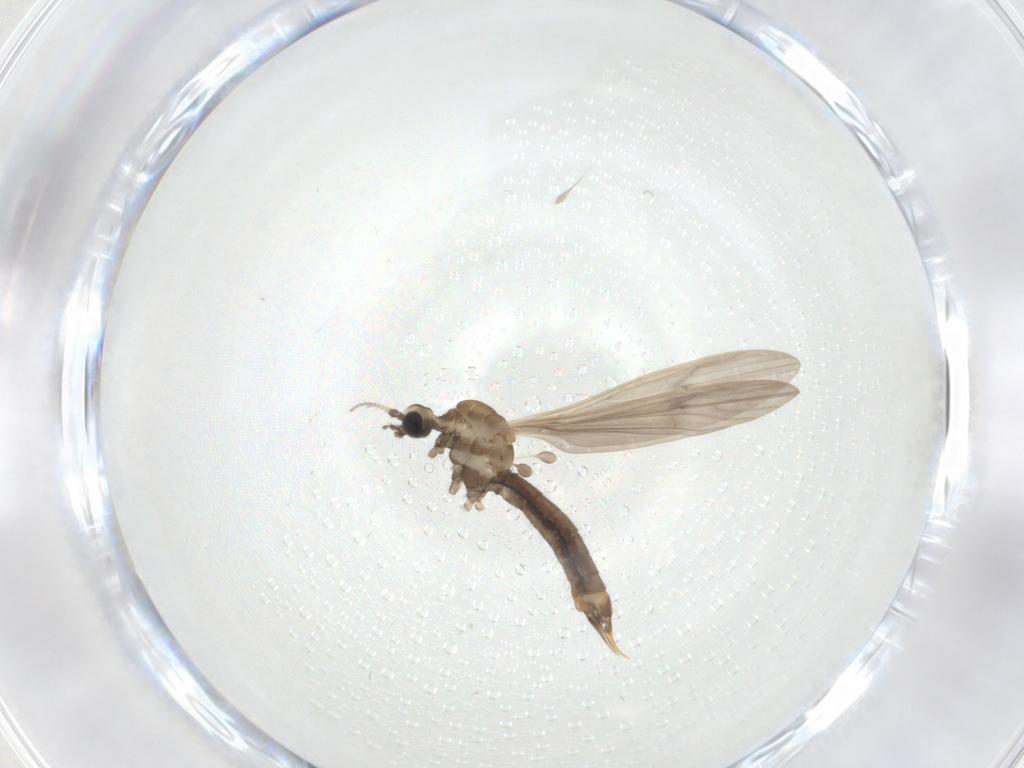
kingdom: Animalia
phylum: Arthropoda
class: Insecta
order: Diptera
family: Limoniidae
